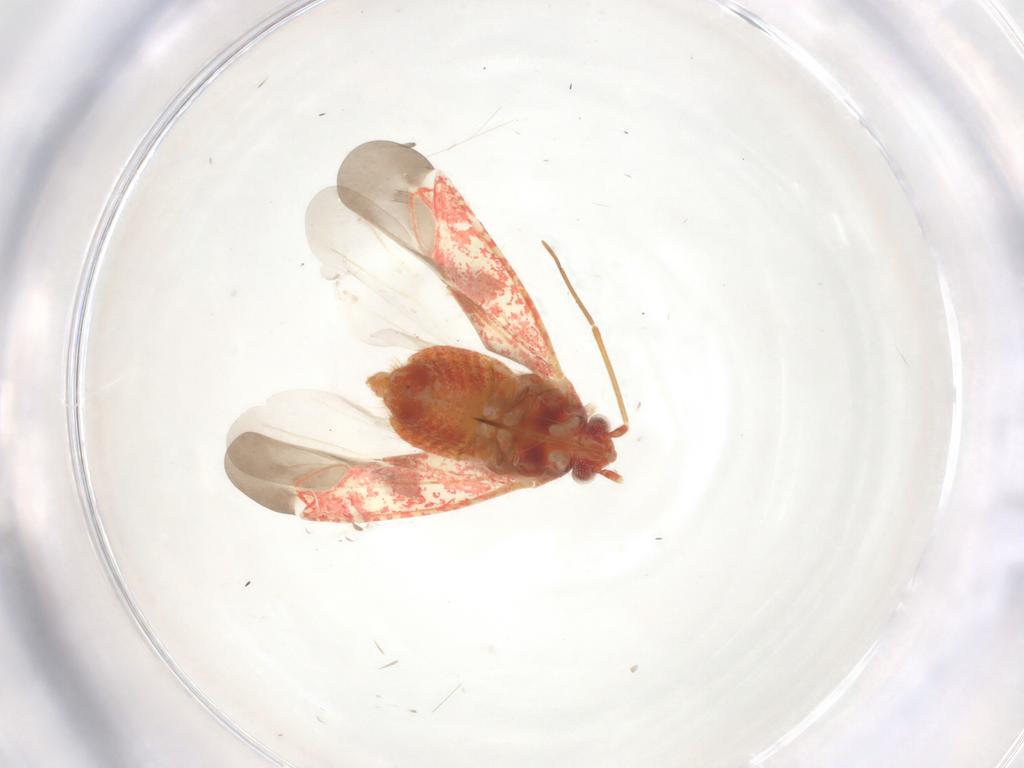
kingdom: Animalia
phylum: Arthropoda
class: Insecta
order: Hemiptera
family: Miridae
